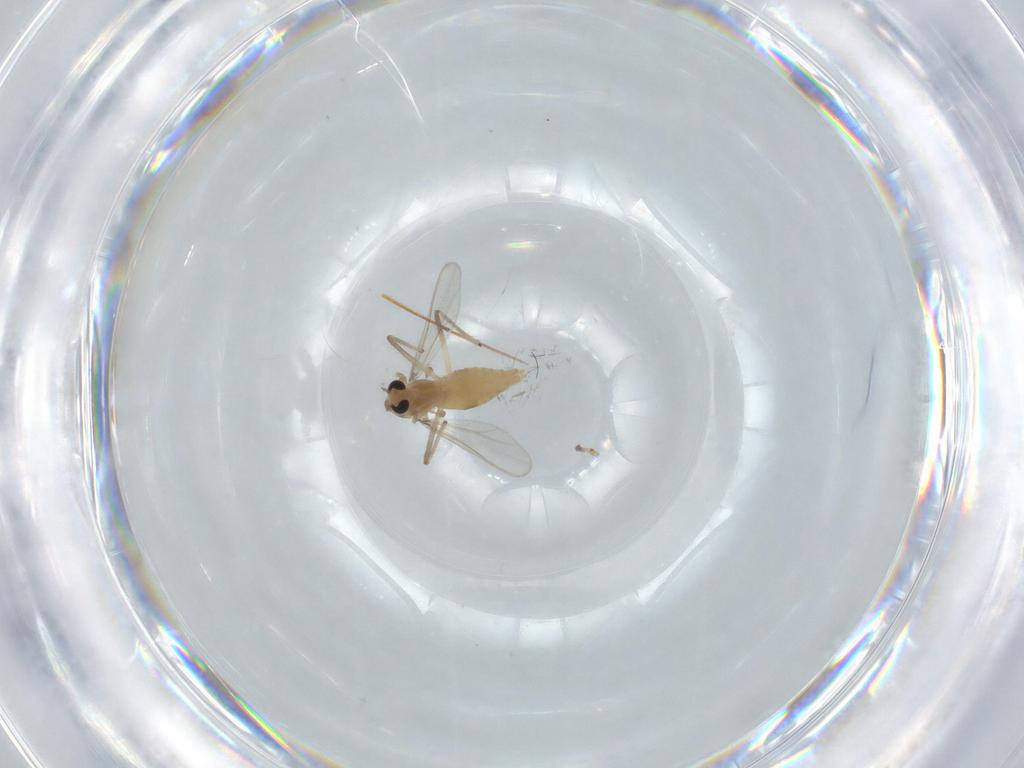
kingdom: Animalia
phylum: Arthropoda
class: Insecta
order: Diptera
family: Chironomidae
